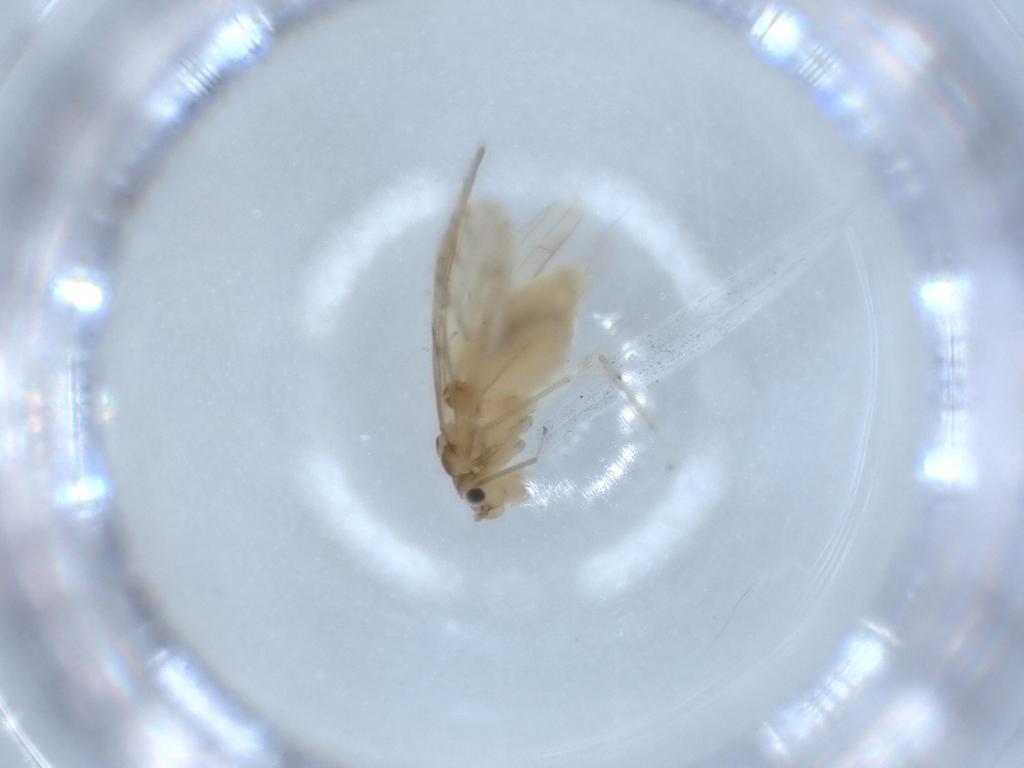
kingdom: Animalia
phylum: Arthropoda
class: Insecta
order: Psocodea
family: Caeciliusidae
